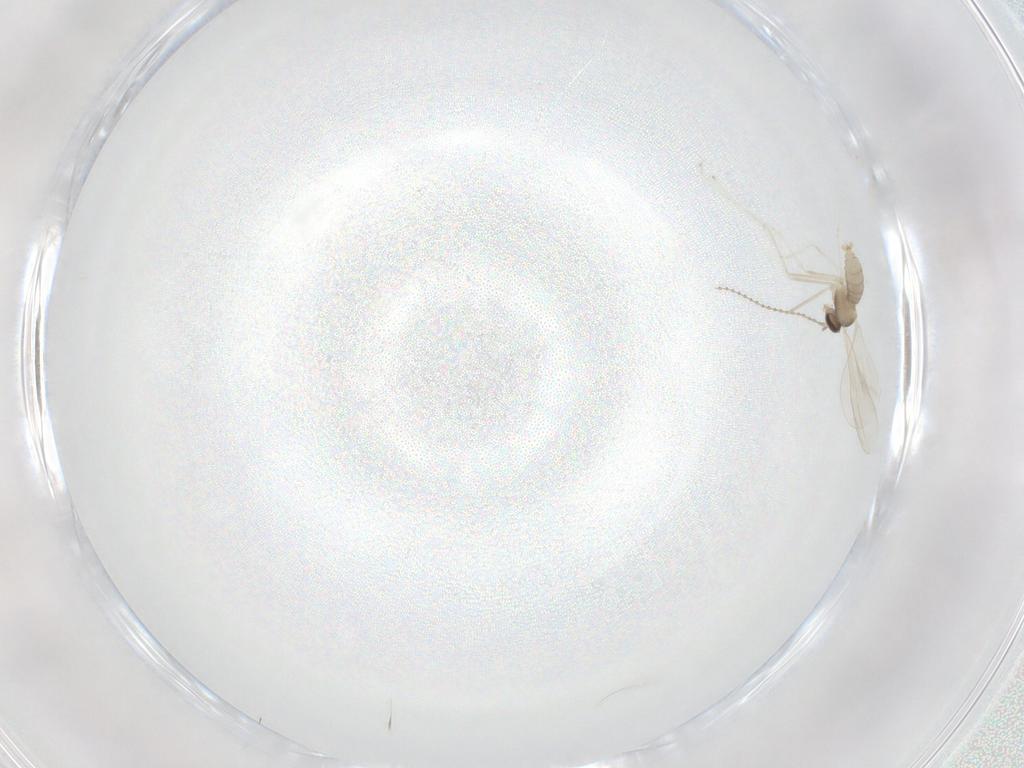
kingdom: Animalia
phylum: Arthropoda
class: Insecta
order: Diptera
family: Cecidomyiidae
